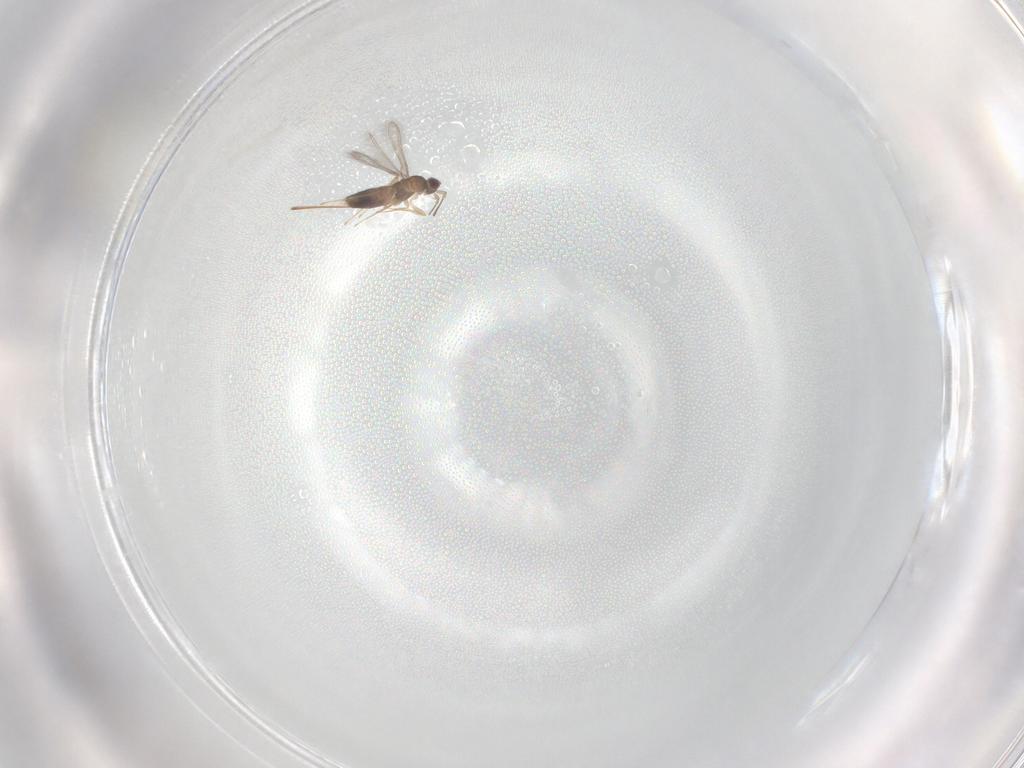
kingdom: Animalia
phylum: Arthropoda
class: Insecta
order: Hymenoptera
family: Mymaridae
